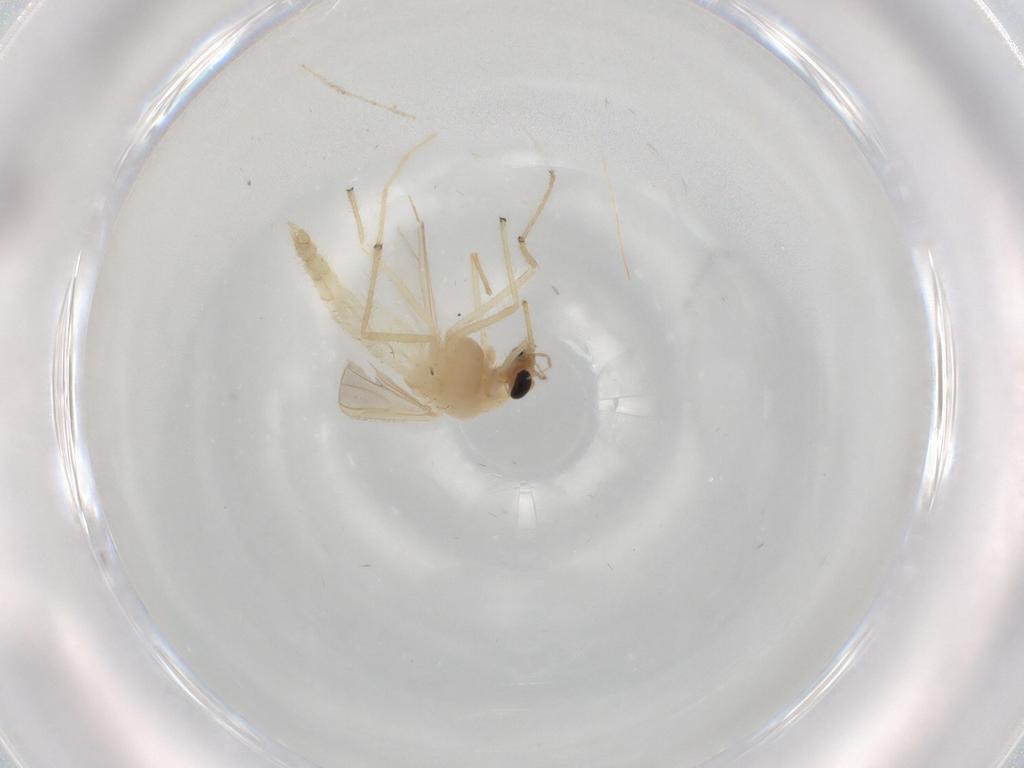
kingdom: Animalia
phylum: Arthropoda
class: Insecta
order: Diptera
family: Chironomidae
